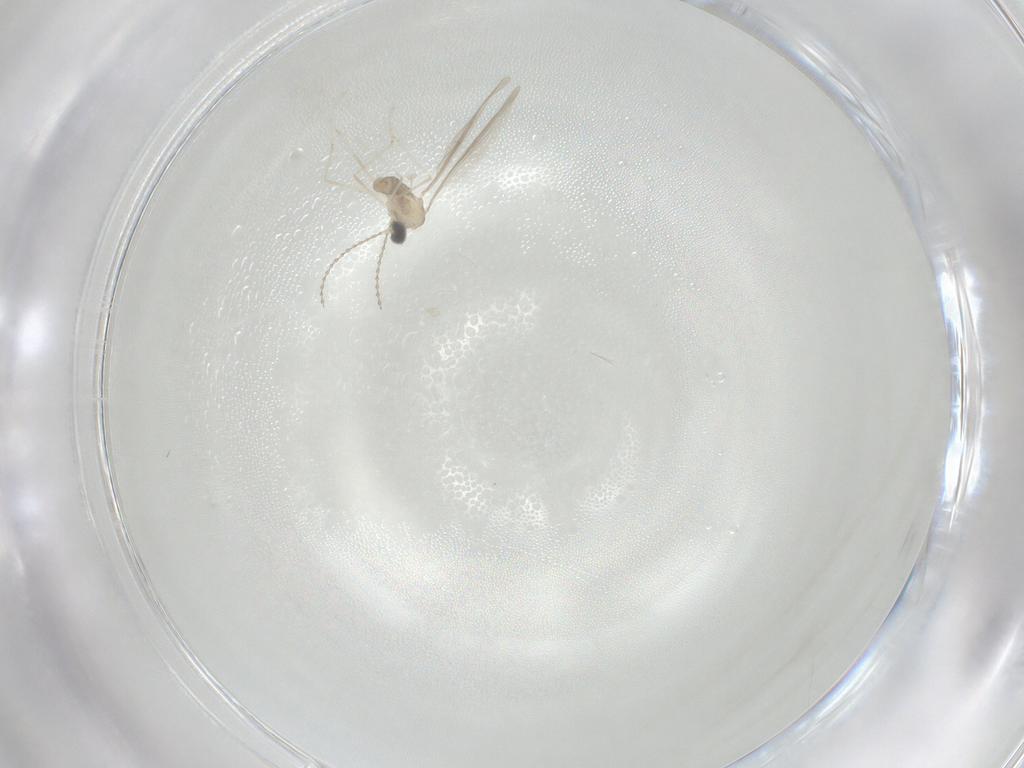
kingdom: Animalia
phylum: Arthropoda
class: Insecta
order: Diptera
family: Cecidomyiidae
